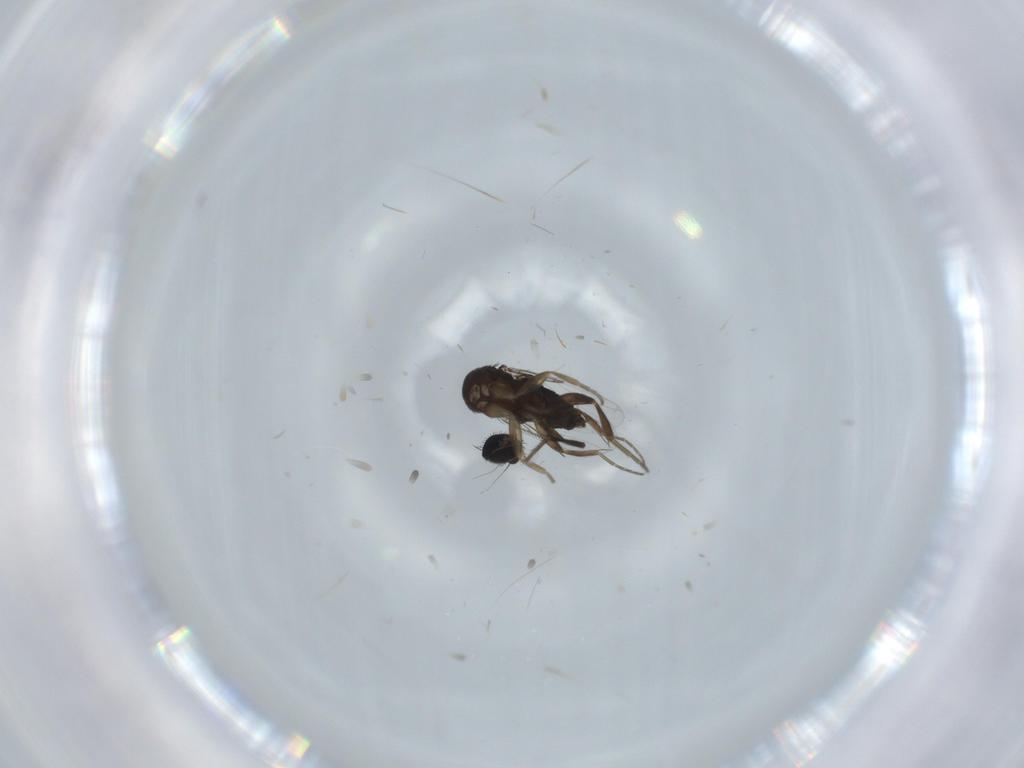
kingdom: Animalia
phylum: Arthropoda
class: Insecta
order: Diptera
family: Phoridae
